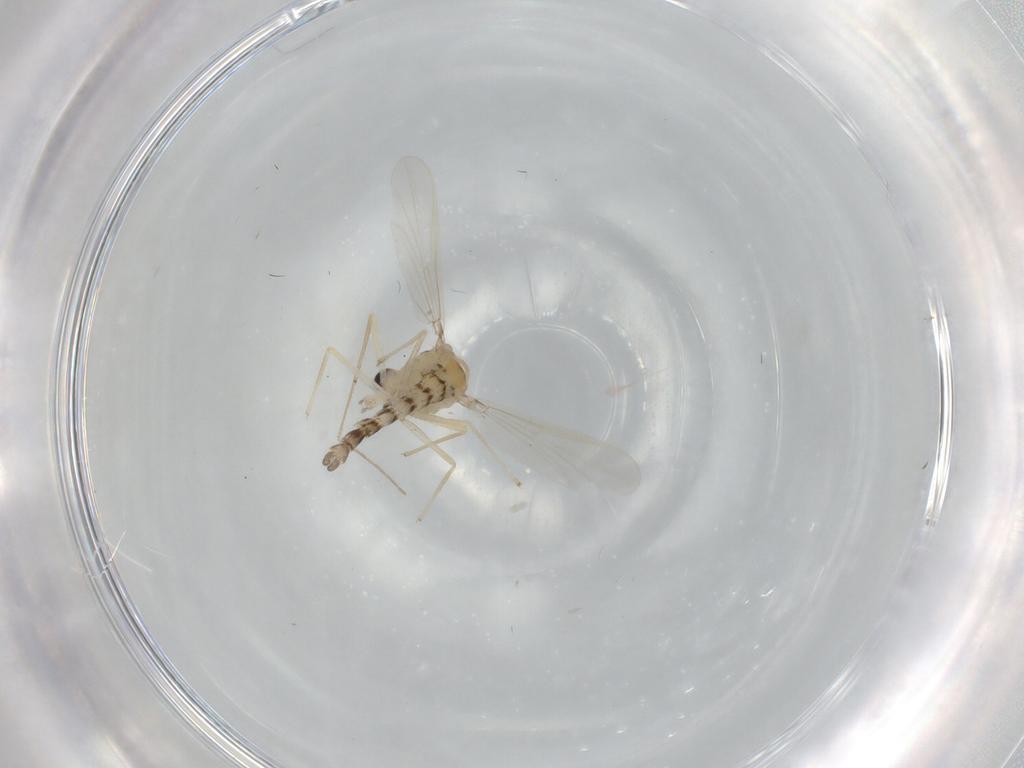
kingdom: Animalia
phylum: Arthropoda
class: Insecta
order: Diptera
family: Chironomidae
